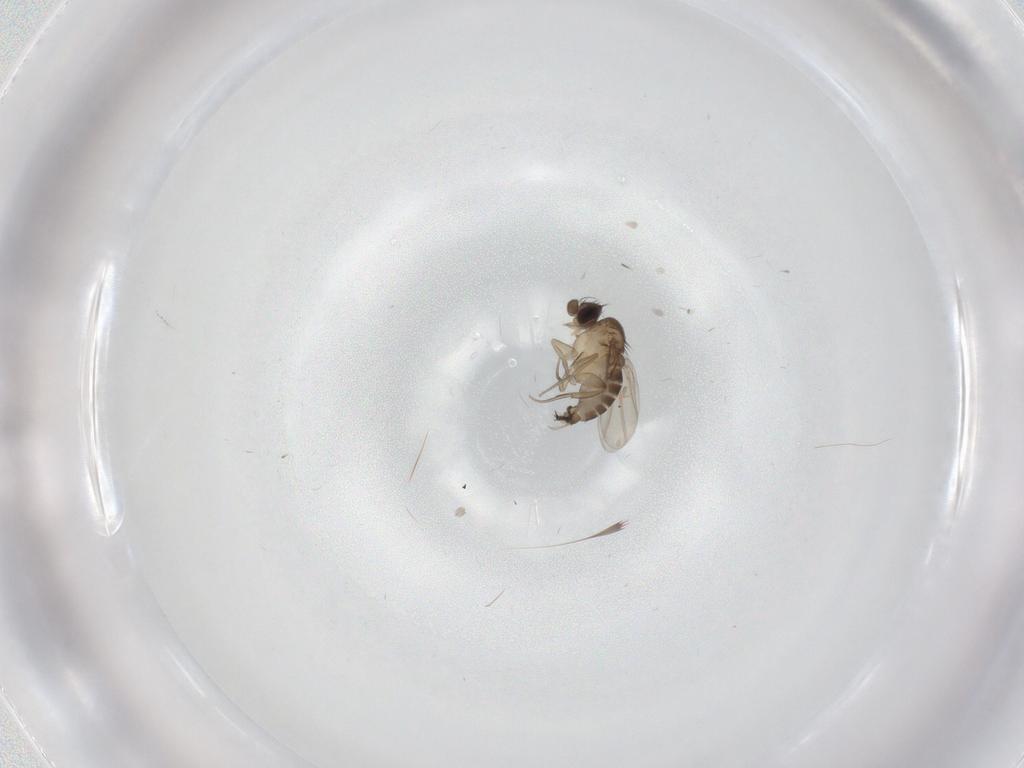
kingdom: Animalia
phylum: Arthropoda
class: Insecta
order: Diptera
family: Phoridae
